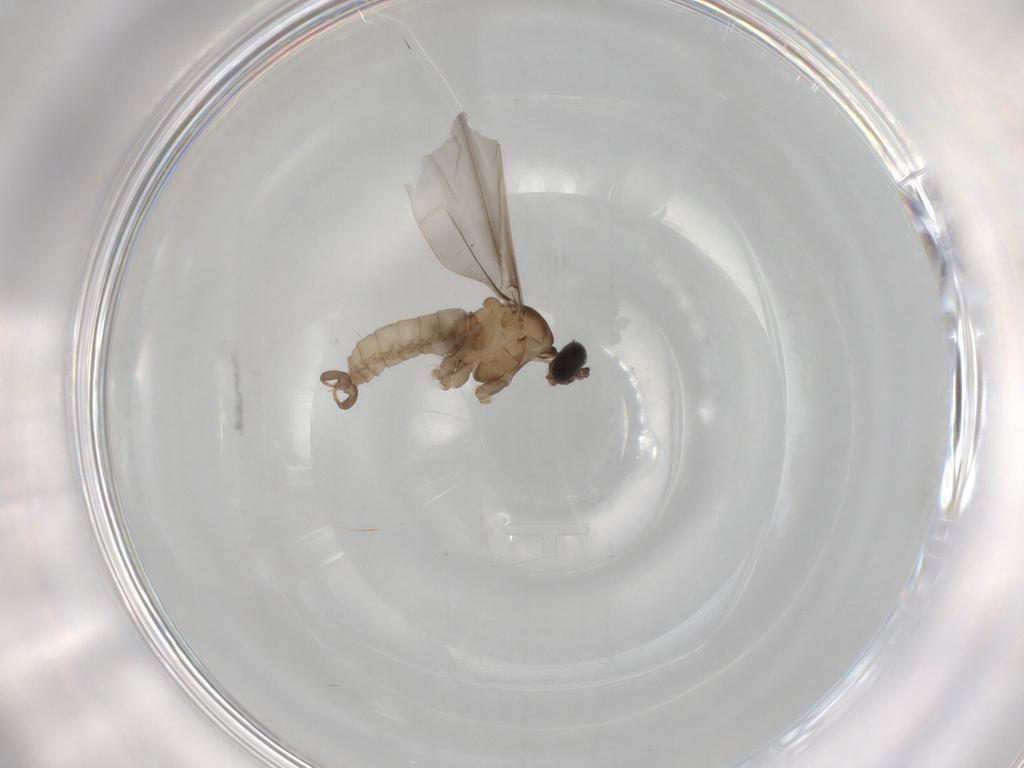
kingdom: Animalia
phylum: Arthropoda
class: Insecta
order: Diptera
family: Cecidomyiidae
